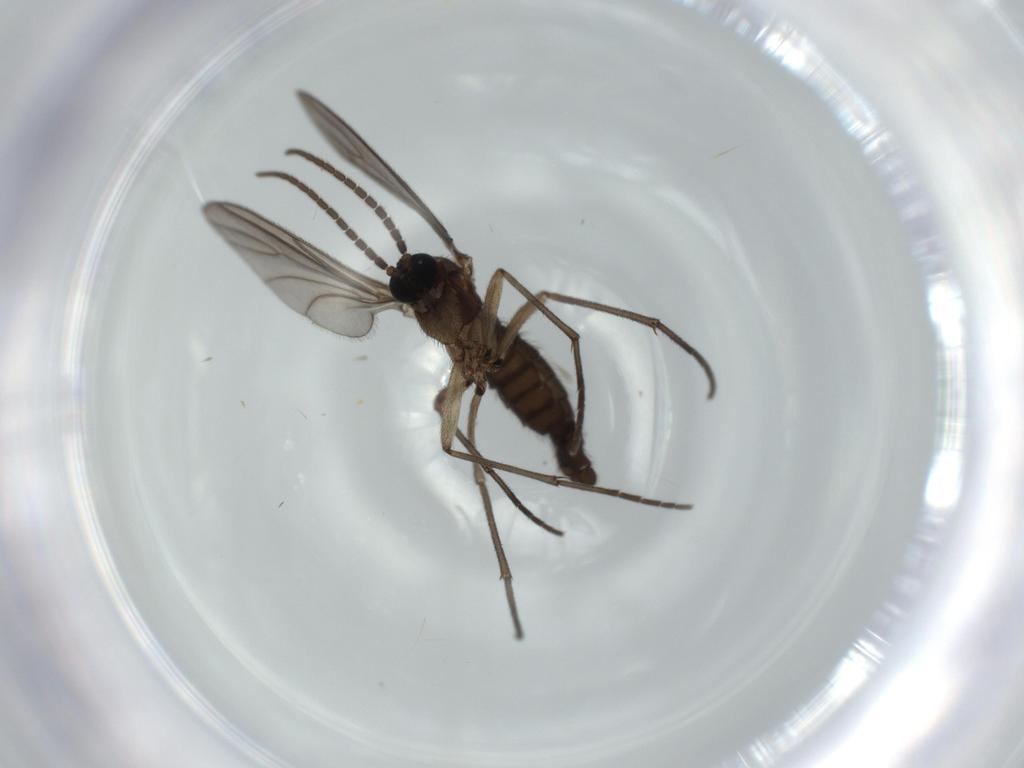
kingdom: Animalia
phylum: Arthropoda
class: Insecta
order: Diptera
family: Sciaridae
